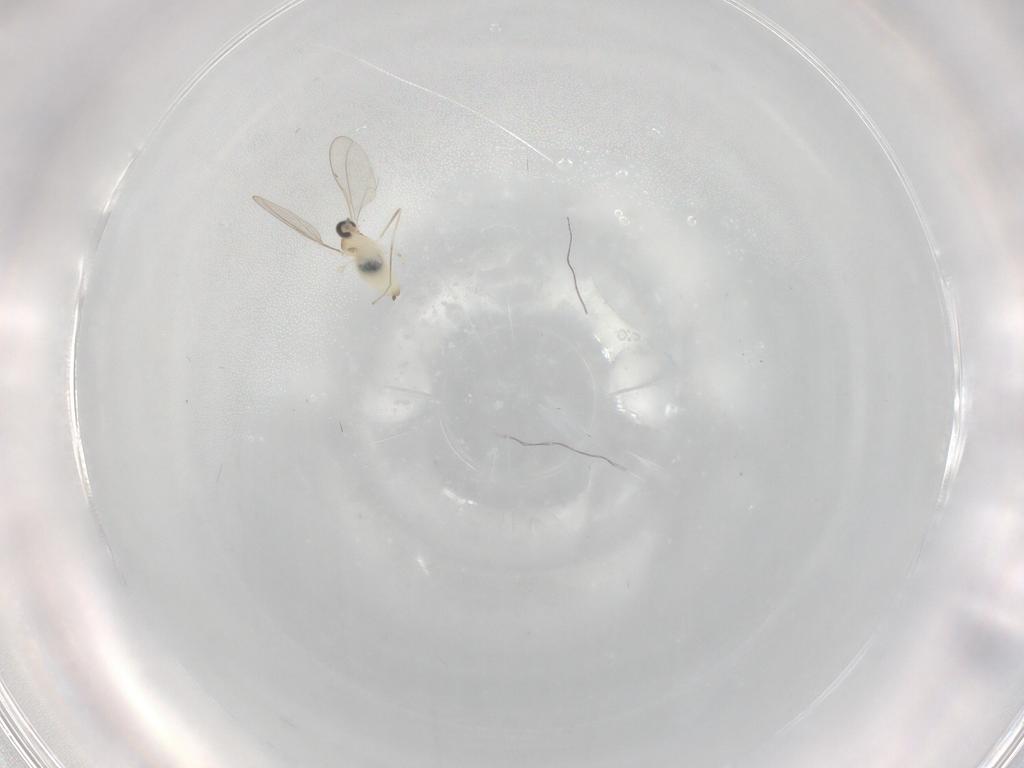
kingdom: Animalia
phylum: Arthropoda
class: Insecta
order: Diptera
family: Cecidomyiidae
